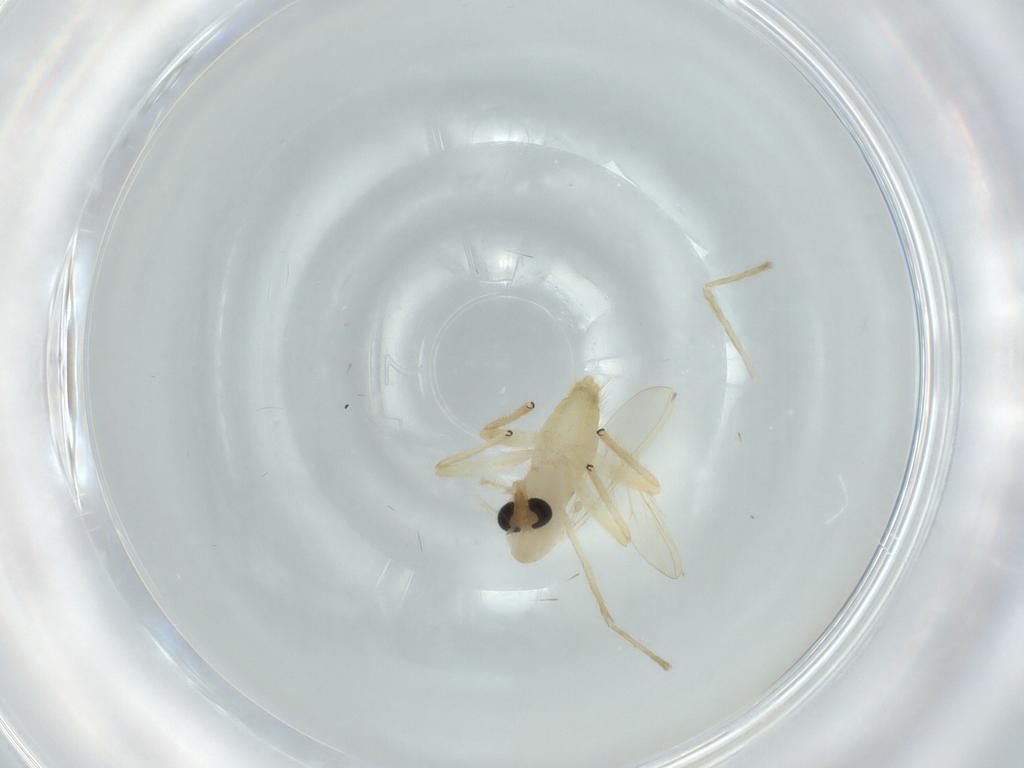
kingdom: Animalia
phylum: Arthropoda
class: Insecta
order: Diptera
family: Chironomidae
